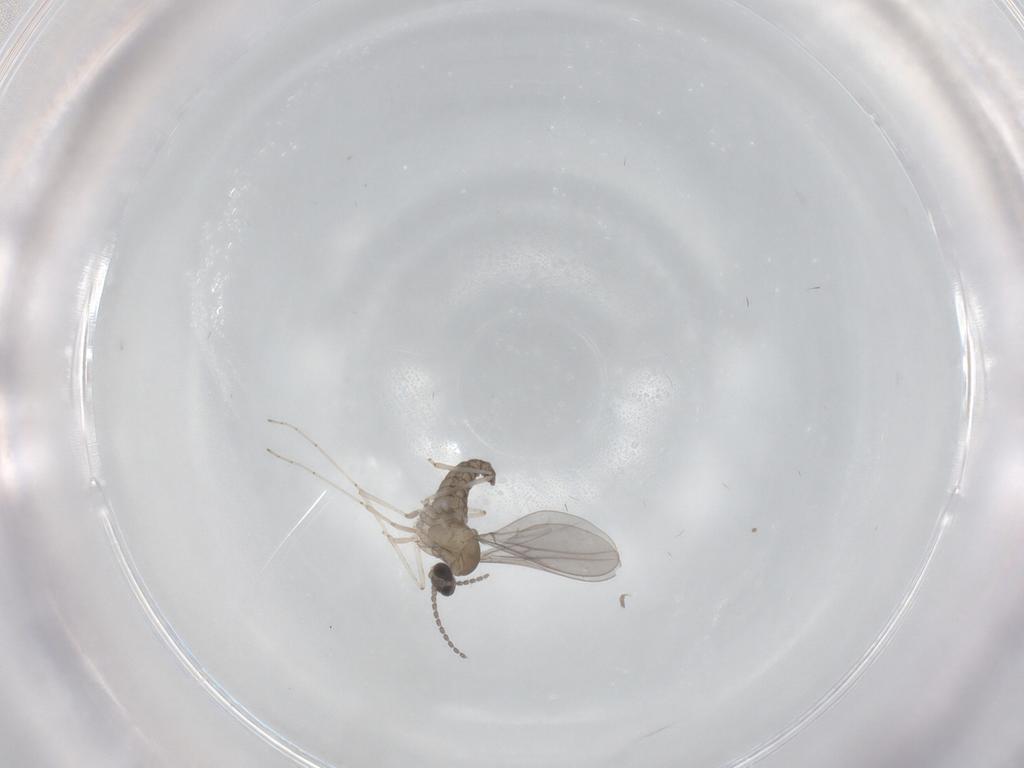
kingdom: Animalia
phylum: Arthropoda
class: Insecta
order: Diptera
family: Cecidomyiidae
